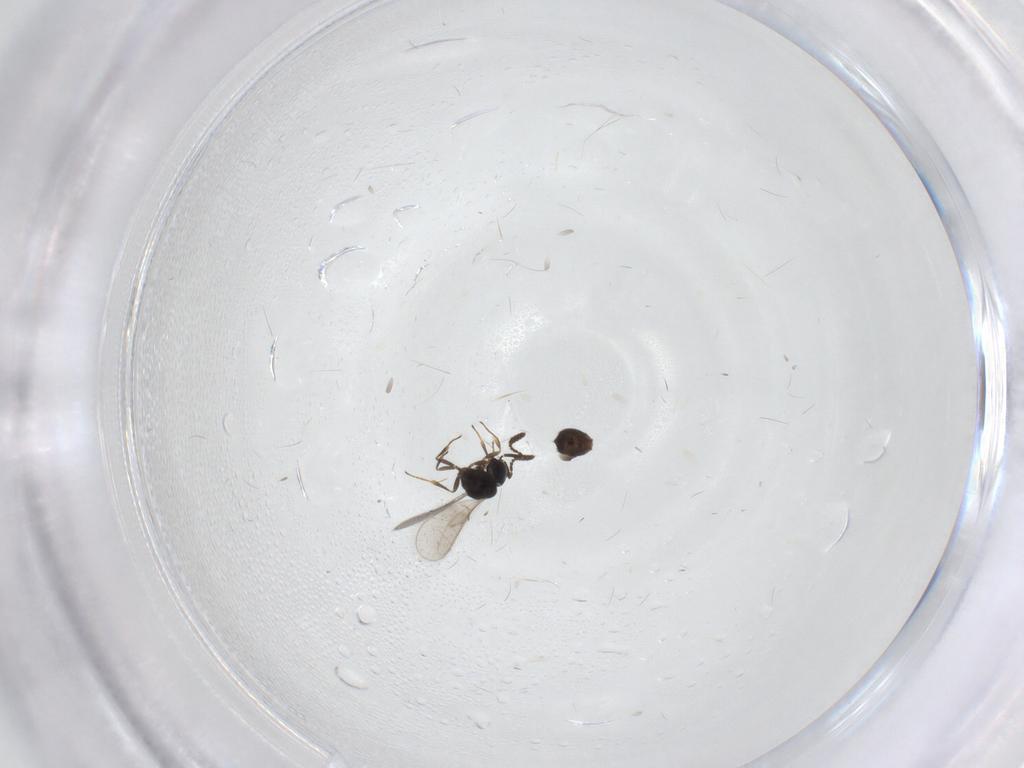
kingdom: Animalia
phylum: Arthropoda
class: Insecta
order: Hymenoptera
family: Scelionidae
